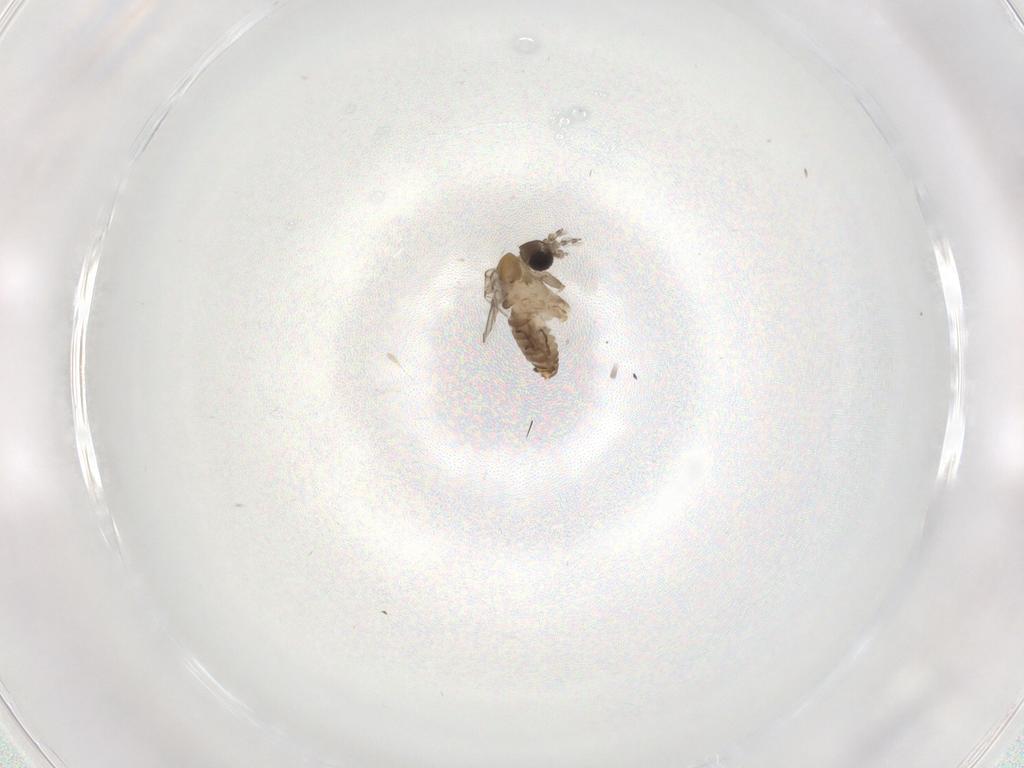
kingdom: Animalia
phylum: Arthropoda
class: Insecta
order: Diptera
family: Psychodidae
